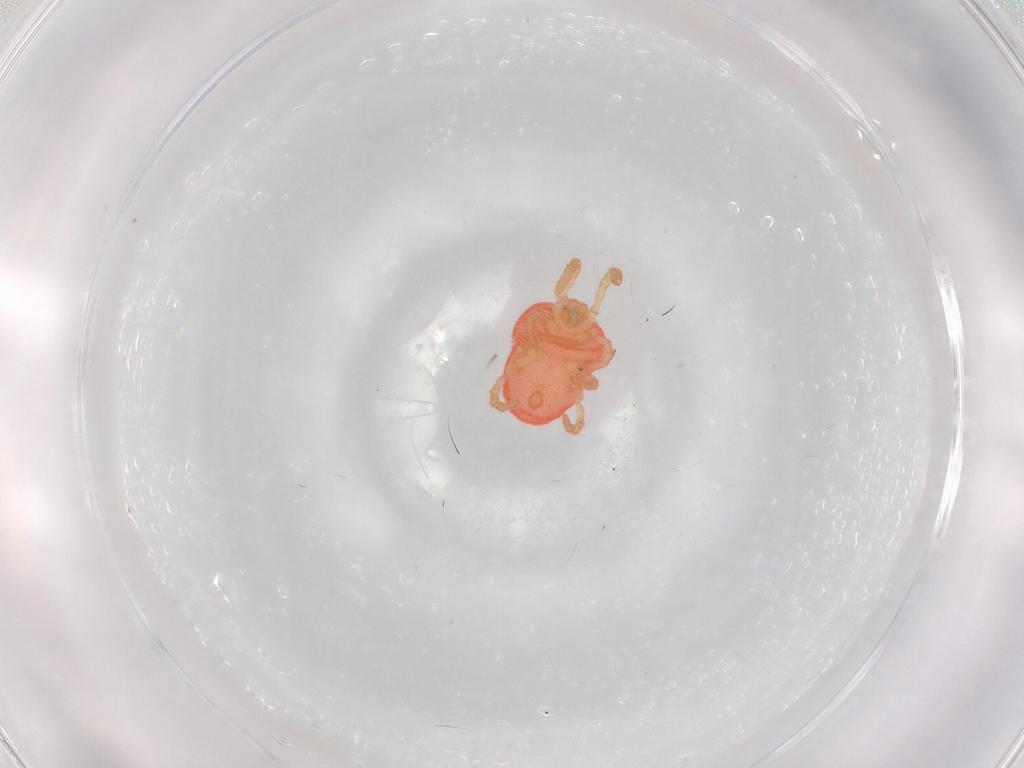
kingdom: Animalia
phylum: Arthropoda
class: Arachnida
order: Trombidiformes
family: Microtrombidiidae
